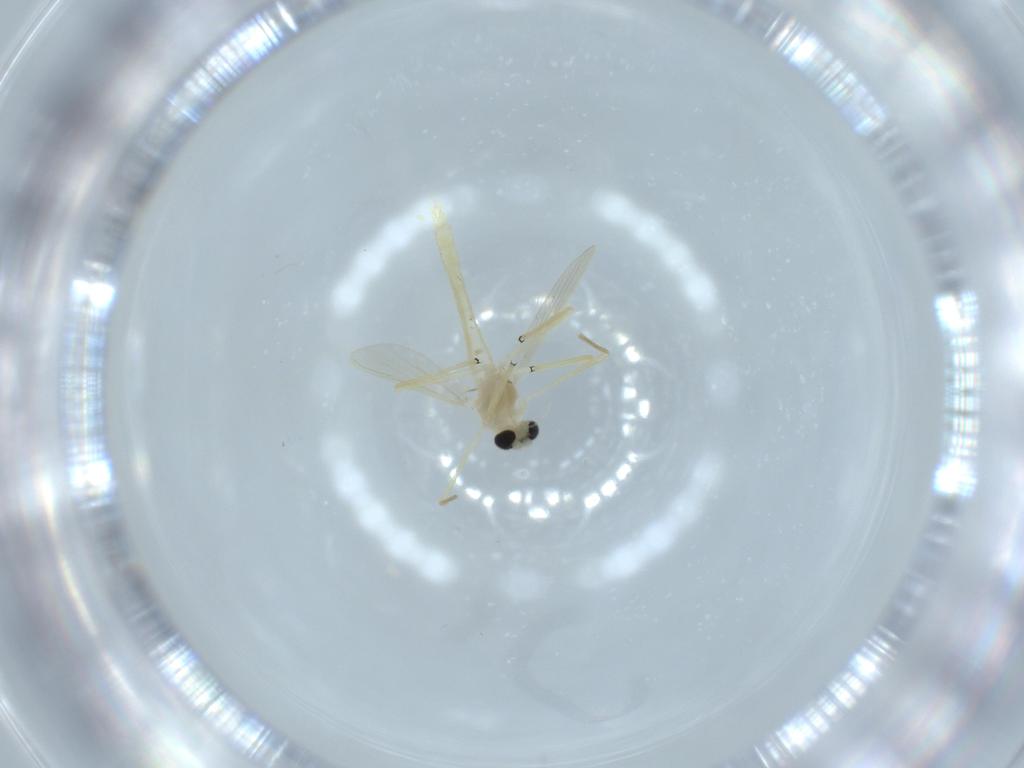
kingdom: Animalia
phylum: Arthropoda
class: Insecta
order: Diptera
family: Chironomidae
